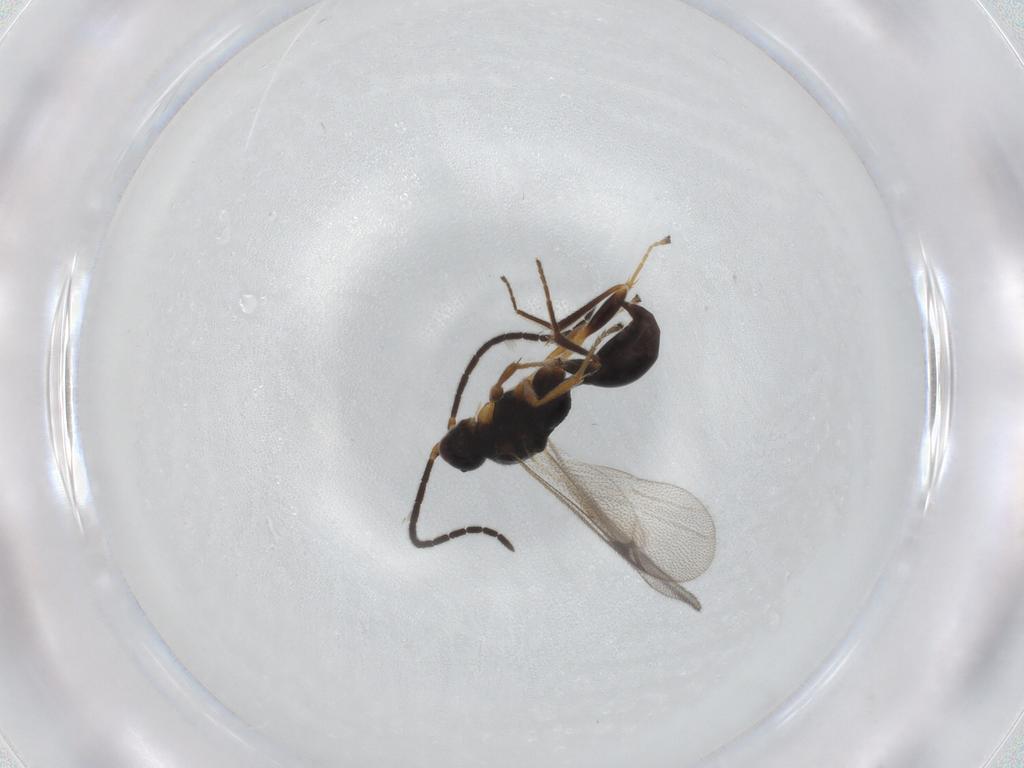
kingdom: Animalia
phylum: Arthropoda
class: Insecta
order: Hymenoptera
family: Proctotrupidae
